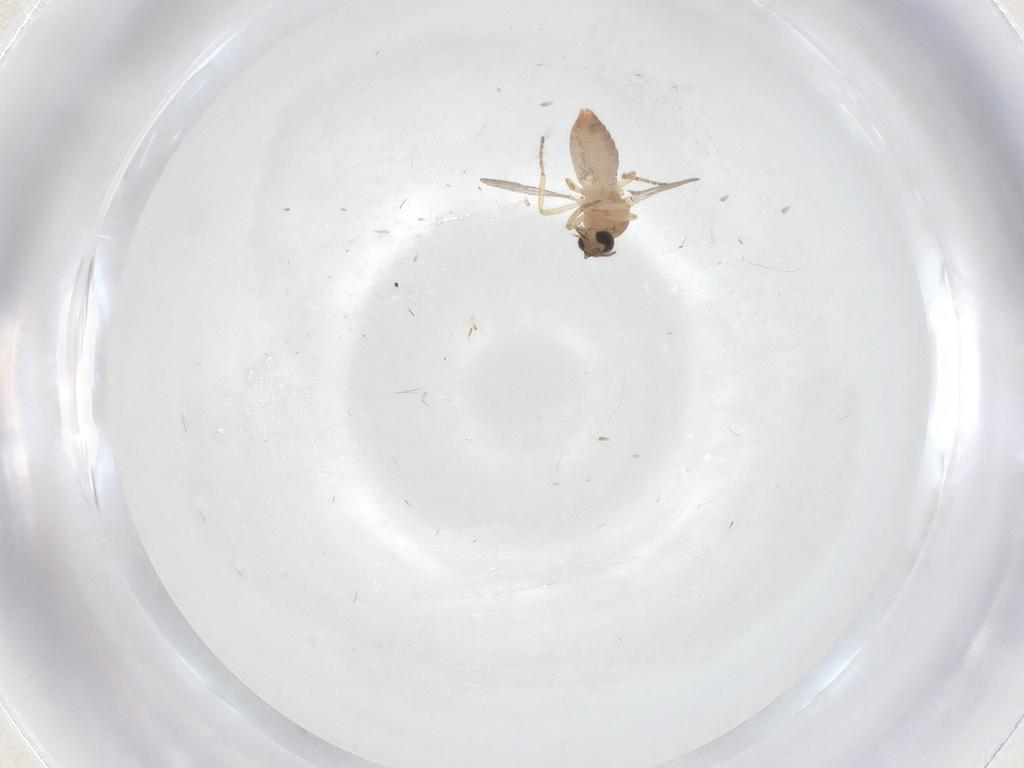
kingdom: Animalia
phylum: Arthropoda
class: Insecta
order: Diptera
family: Ceratopogonidae
